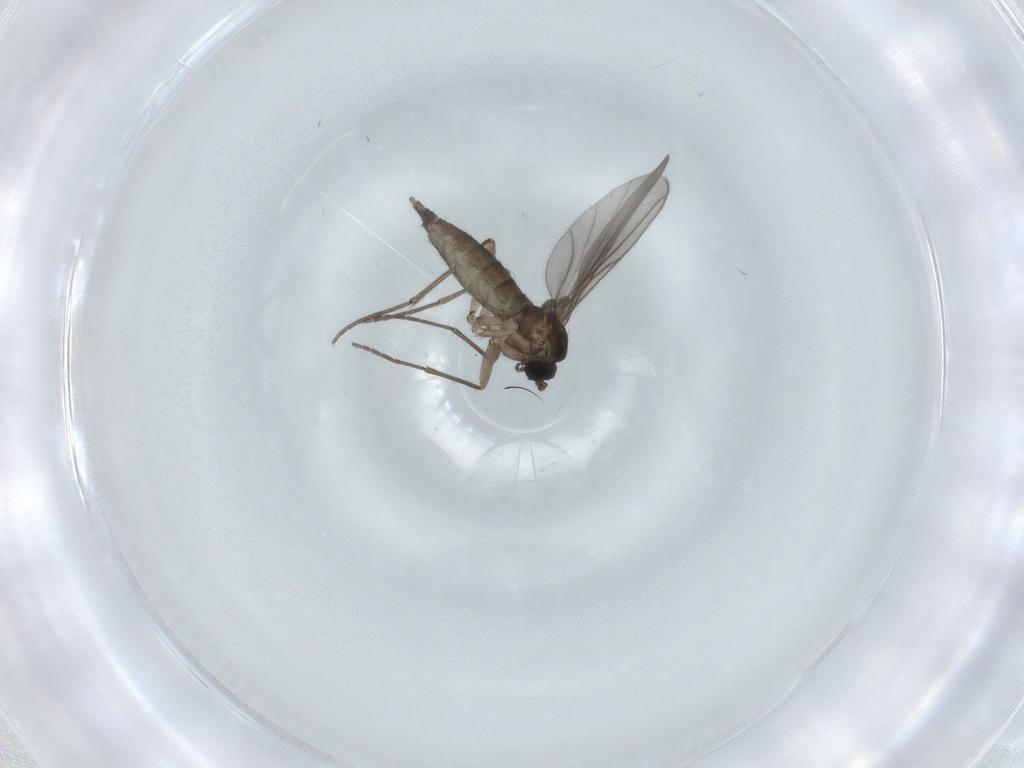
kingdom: Animalia
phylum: Arthropoda
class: Insecta
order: Diptera
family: Sciaridae
